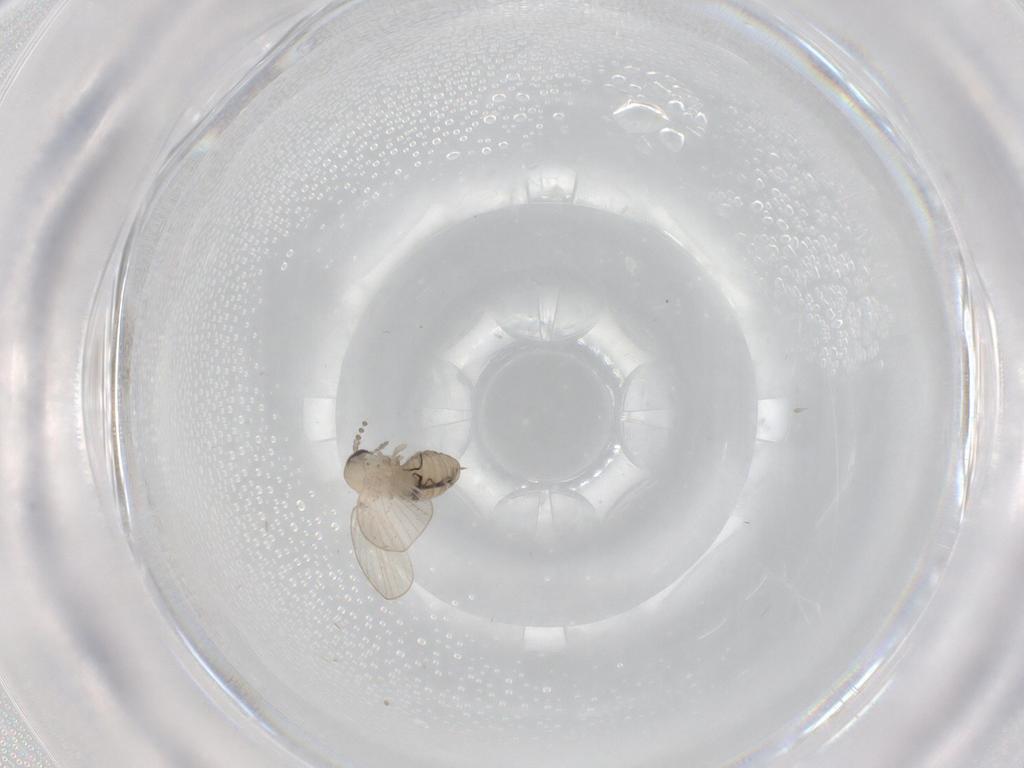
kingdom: Animalia
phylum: Arthropoda
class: Insecta
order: Diptera
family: Psychodidae
